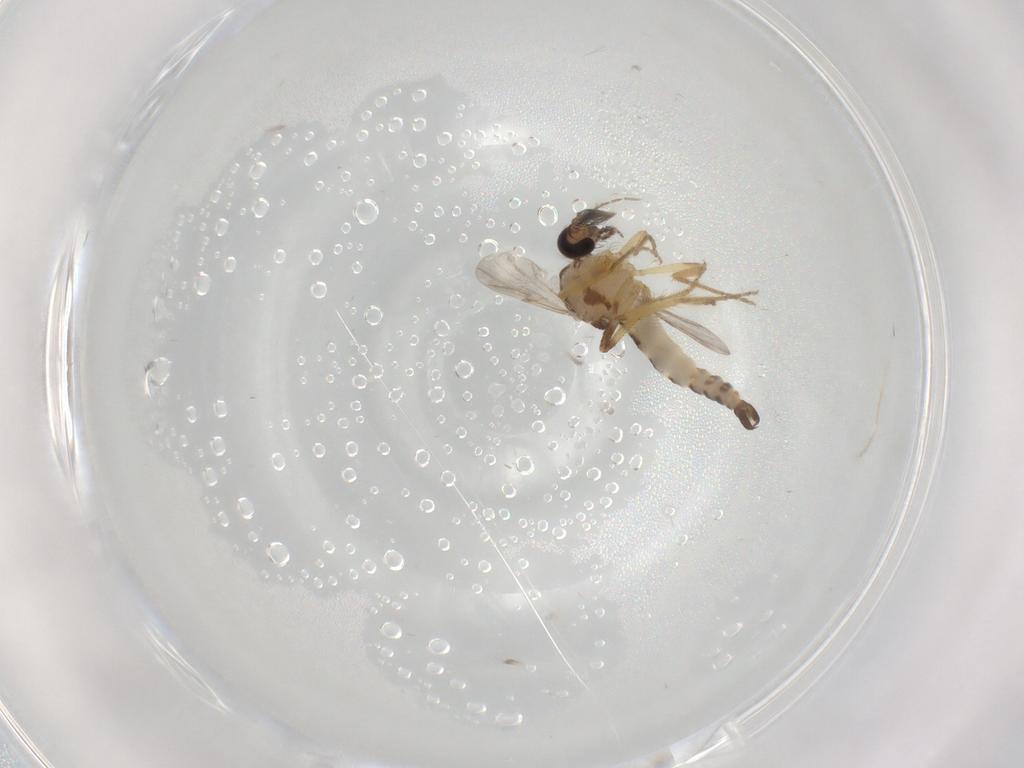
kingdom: Animalia
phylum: Arthropoda
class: Insecta
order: Diptera
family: Ceratopogonidae
